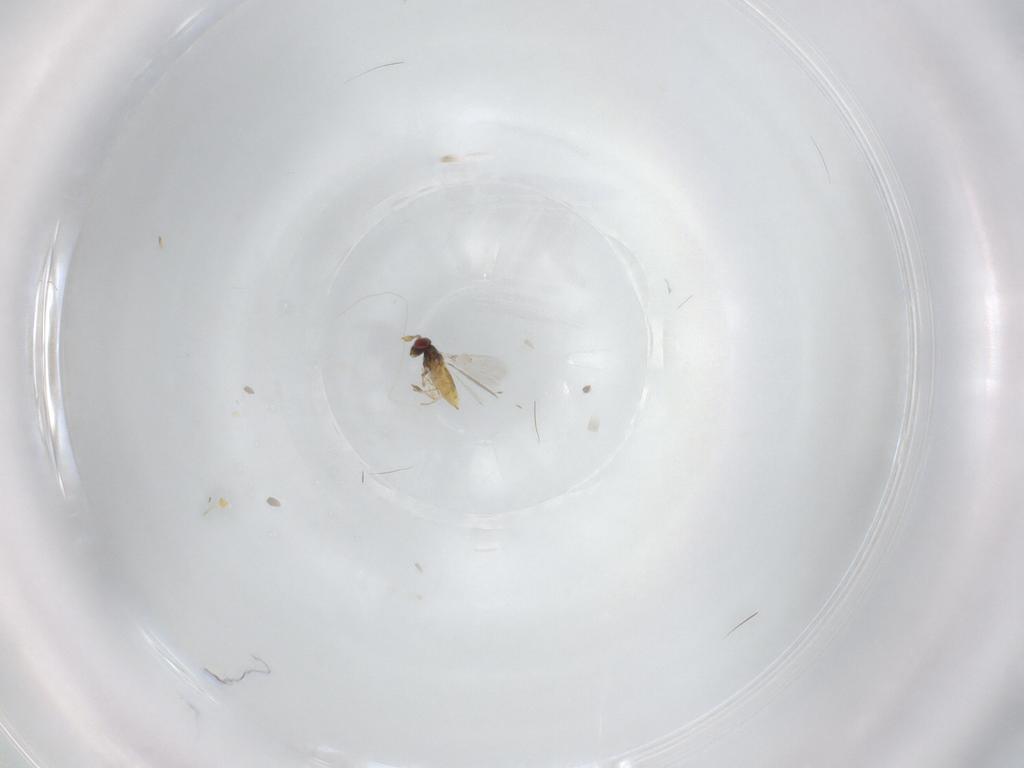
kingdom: Animalia
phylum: Arthropoda
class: Insecta
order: Hymenoptera
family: Trichogrammatidae
